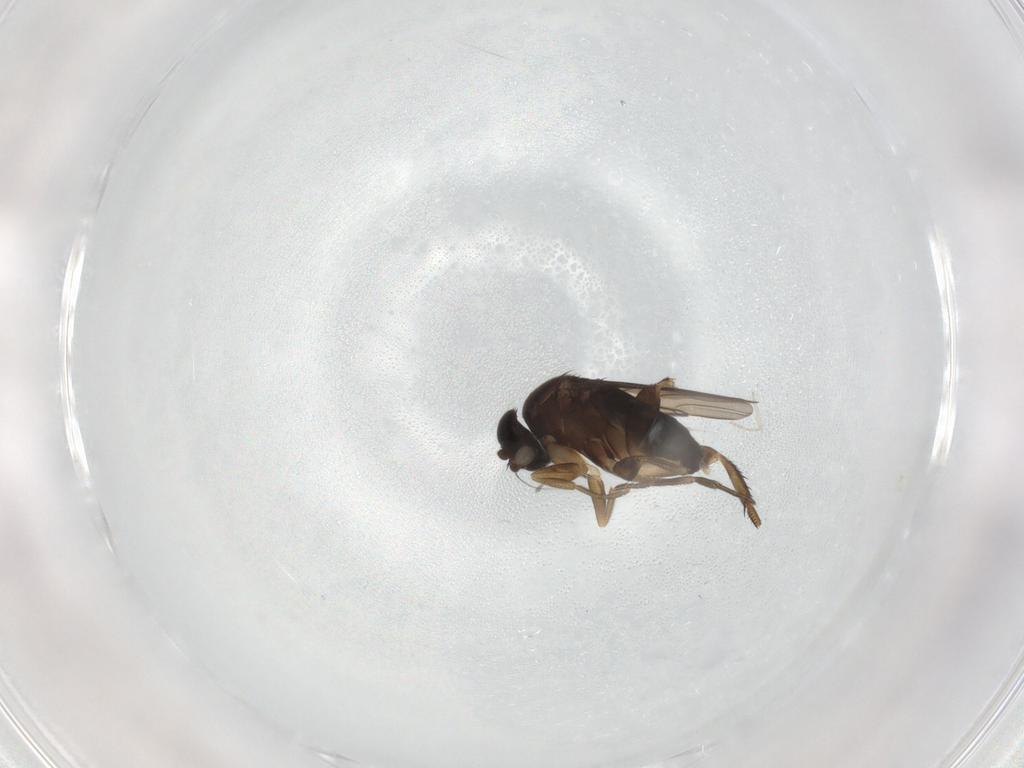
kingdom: Animalia
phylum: Arthropoda
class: Insecta
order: Diptera
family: Phoridae
